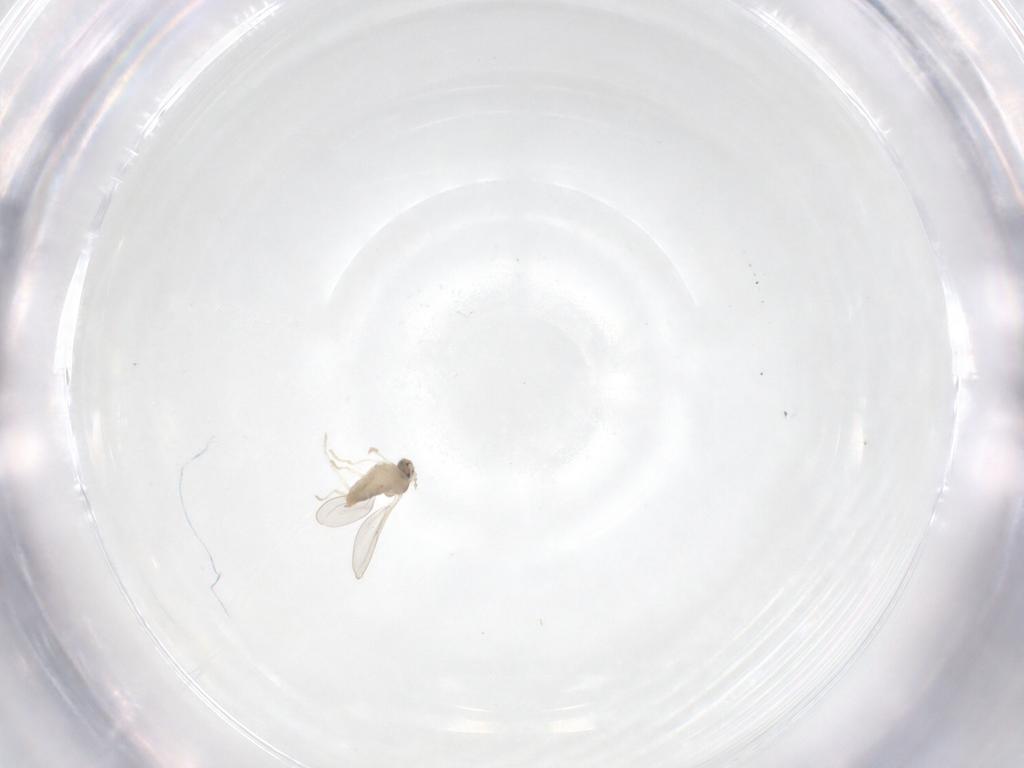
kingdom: Animalia
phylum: Arthropoda
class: Insecta
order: Diptera
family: Cecidomyiidae
